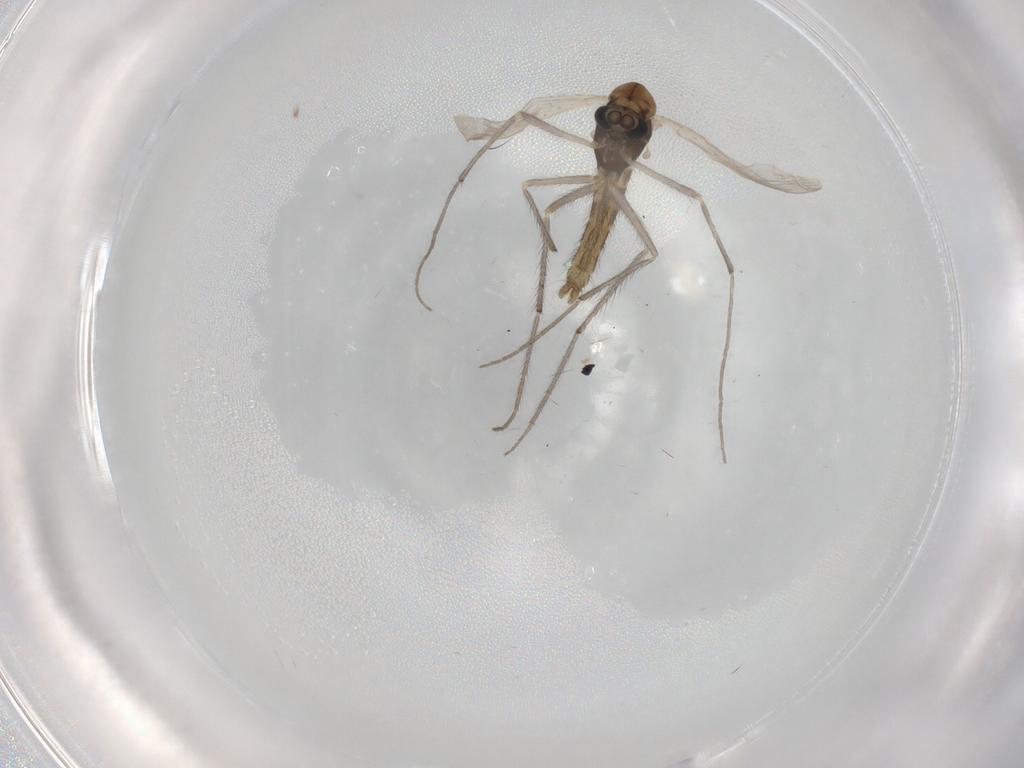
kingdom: Animalia
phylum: Arthropoda
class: Insecta
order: Diptera
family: Chironomidae
